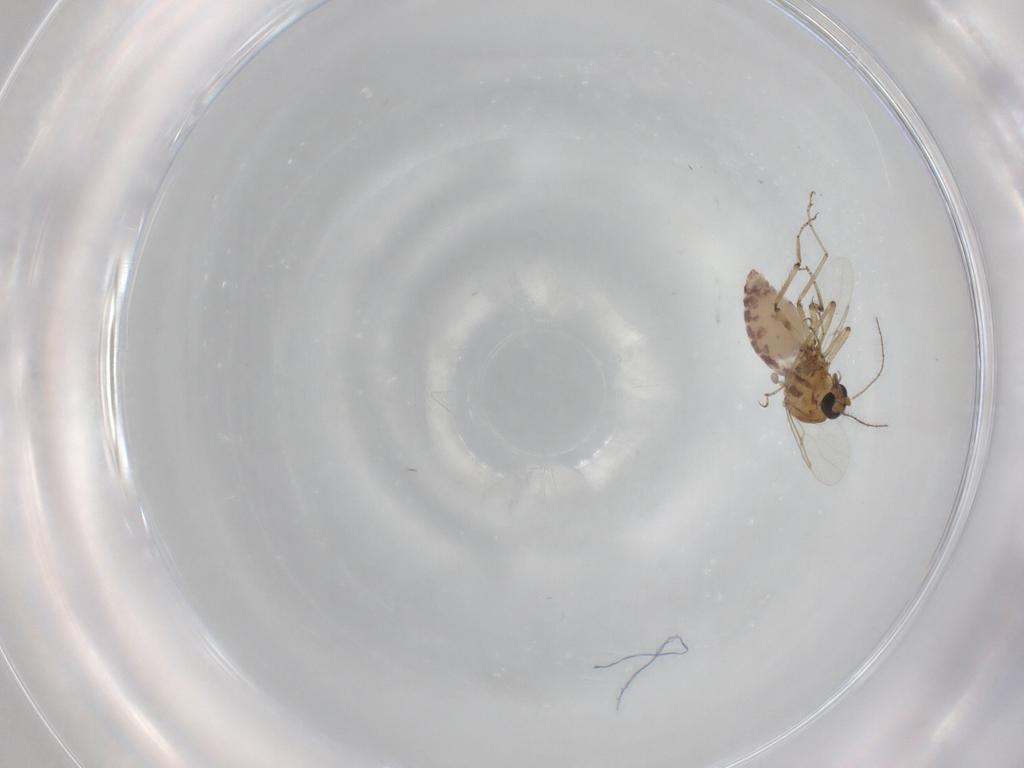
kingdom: Animalia
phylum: Arthropoda
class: Insecta
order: Diptera
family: Ceratopogonidae
